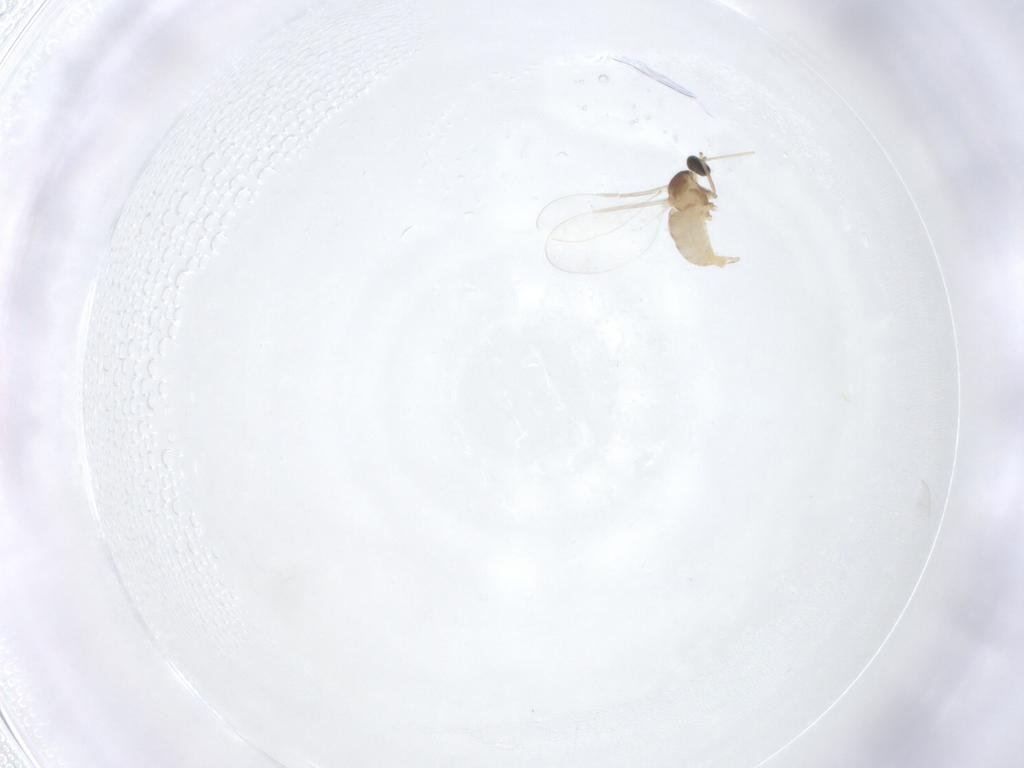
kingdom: Animalia
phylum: Arthropoda
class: Insecta
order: Diptera
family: Cecidomyiidae
